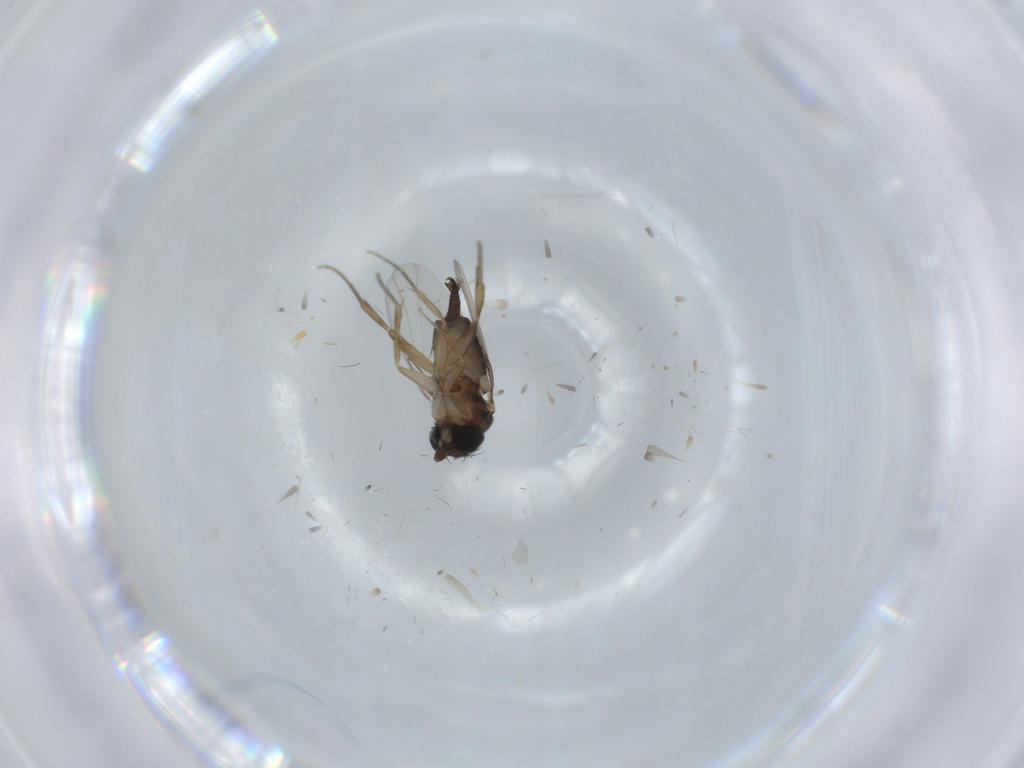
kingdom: Animalia
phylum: Arthropoda
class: Insecta
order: Diptera
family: Phoridae
